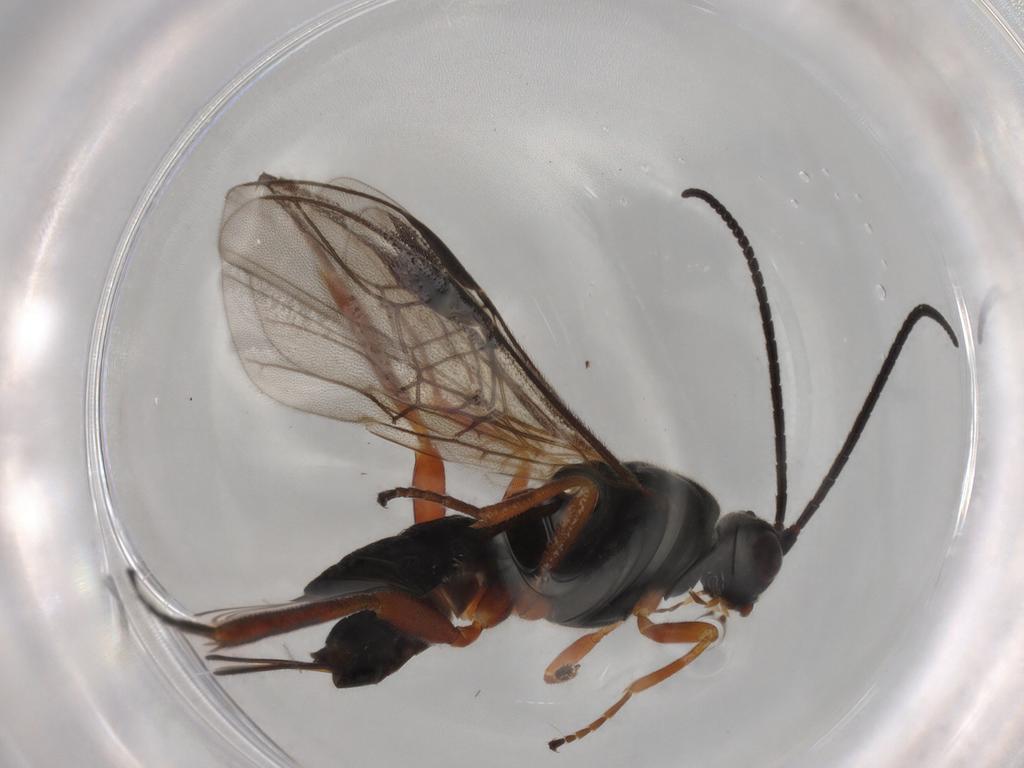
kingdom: Animalia
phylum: Arthropoda
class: Insecta
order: Hymenoptera
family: Braconidae
